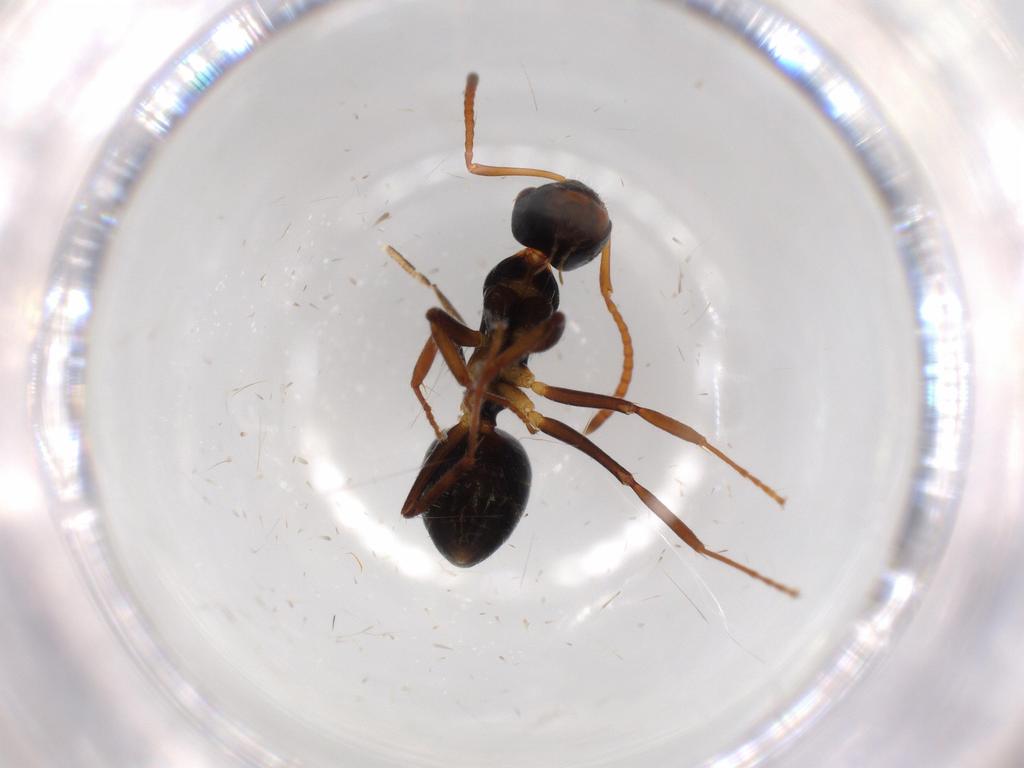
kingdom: Animalia
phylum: Arthropoda
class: Insecta
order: Hymenoptera
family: Formicidae
